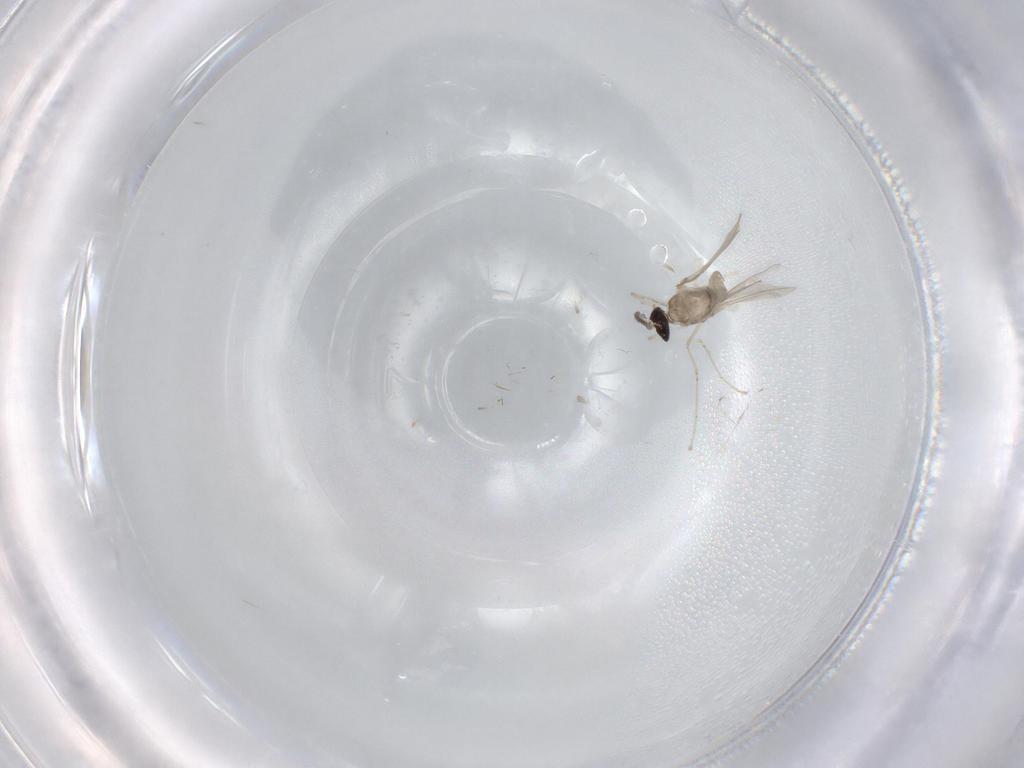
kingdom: Animalia
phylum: Arthropoda
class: Insecta
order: Diptera
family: Cecidomyiidae
